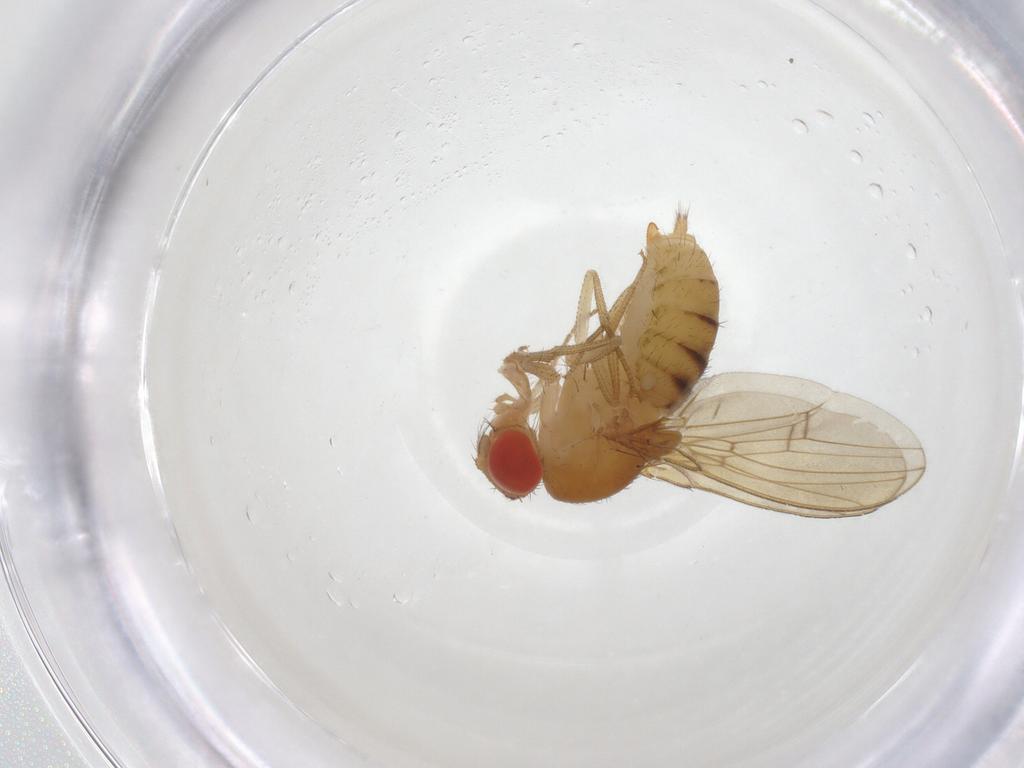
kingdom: Animalia
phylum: Arthropoda
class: Insecta
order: Diptera
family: Drosophilidae
